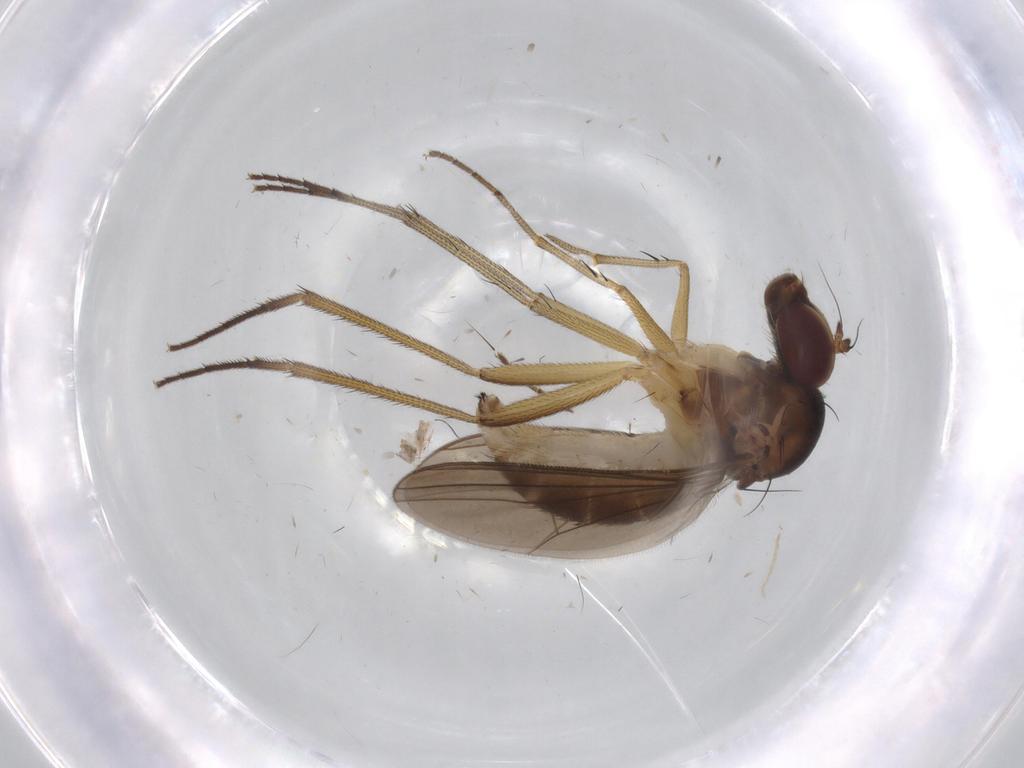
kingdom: Animalia
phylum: Arthropoda
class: Insecta
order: Diptera
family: Dolichopodidae
